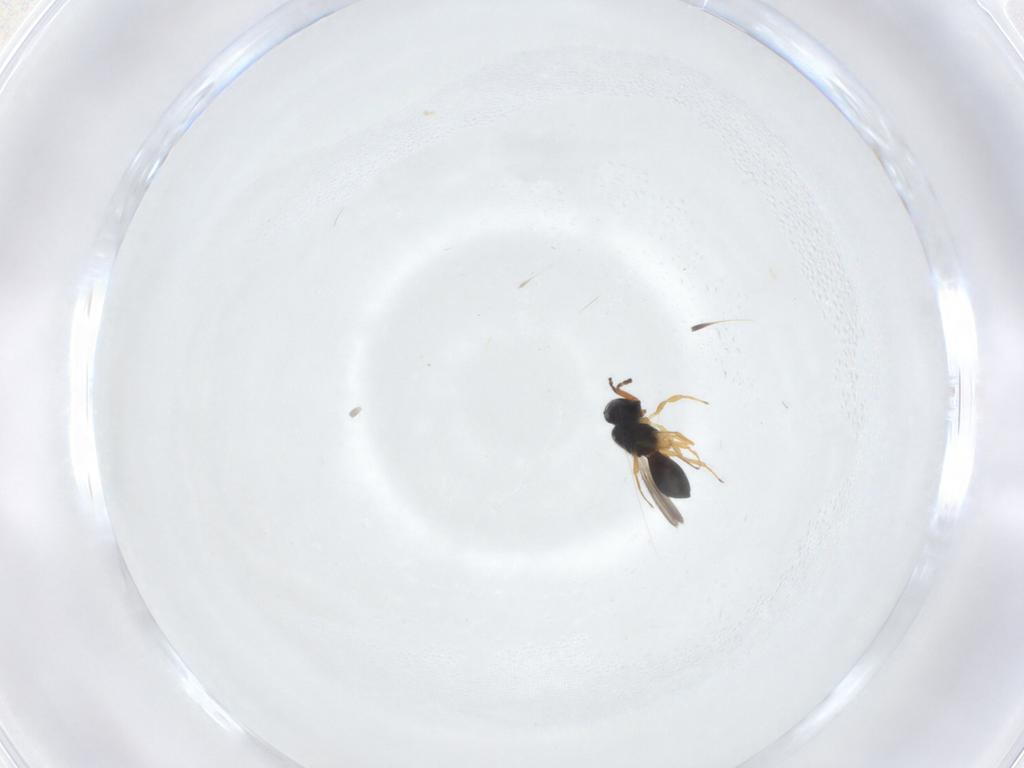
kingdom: Animalia
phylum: Arthropoda
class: Insecta
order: Hymenoptera
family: Scelionidae
